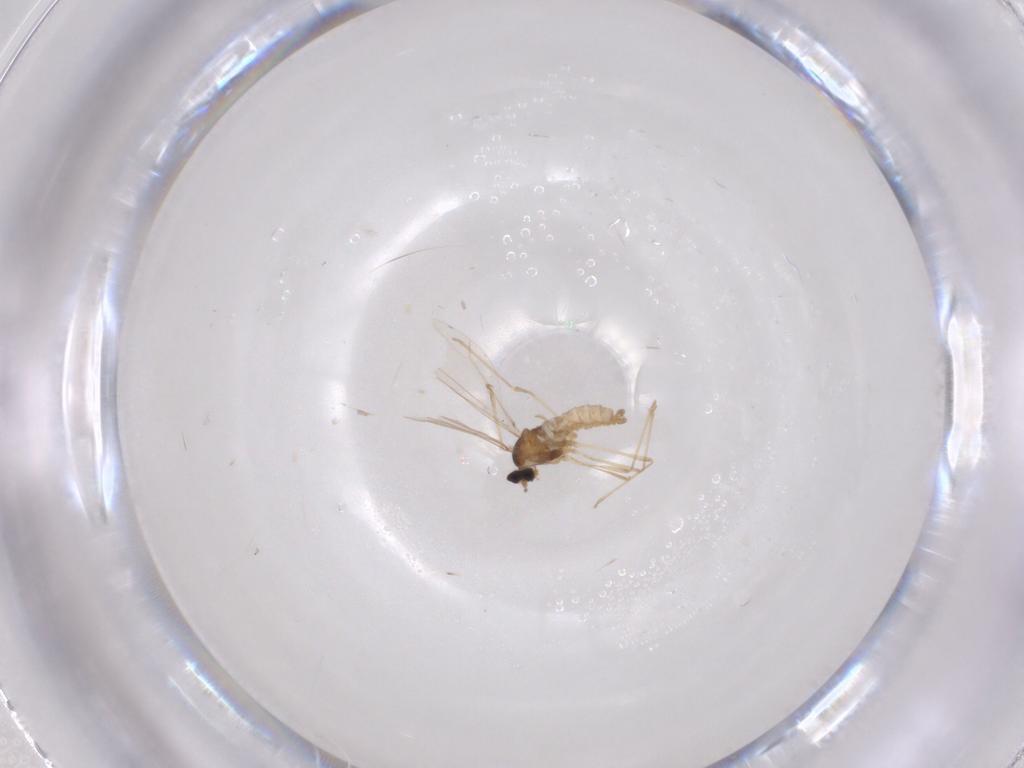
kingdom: Animalia
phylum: Arthropoda
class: Insecta
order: Diptera
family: Cecidomyiidae
